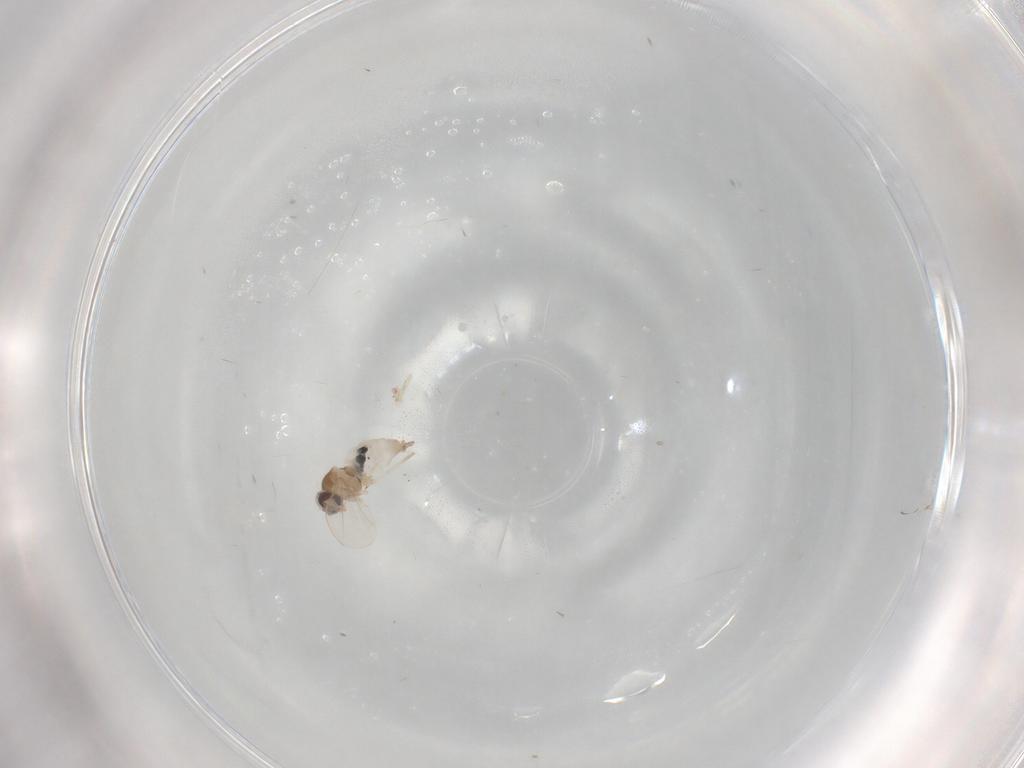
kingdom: Animalia
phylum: Arthropoda
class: Insecta
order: Diptera
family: Cecidomyiidae
